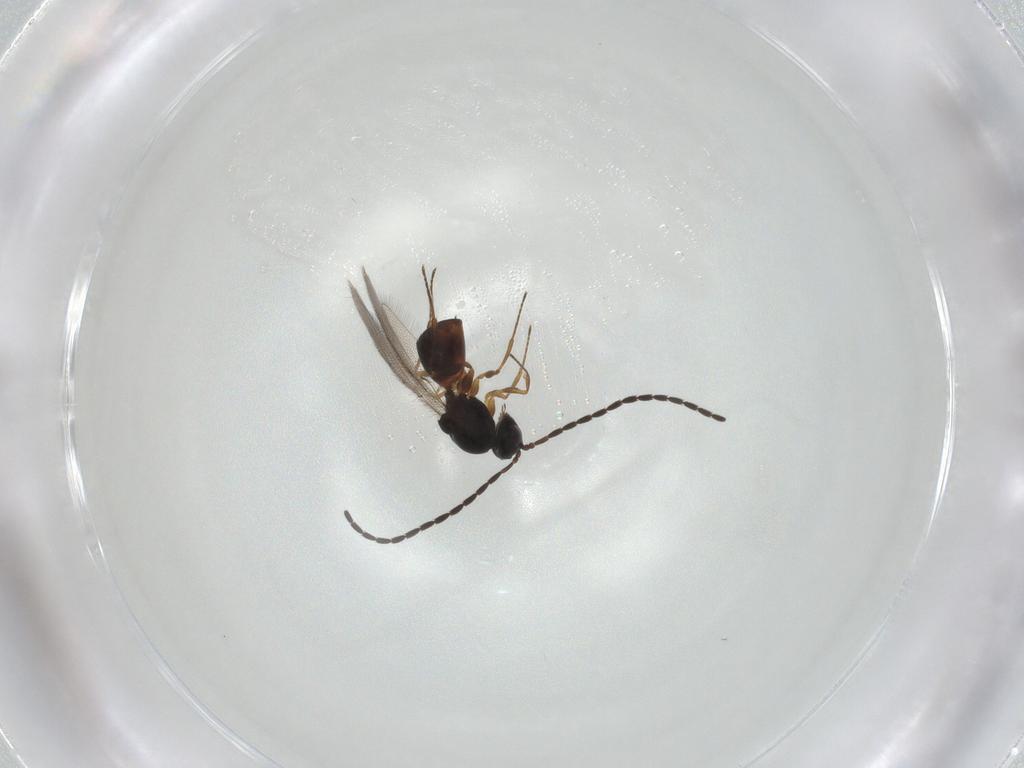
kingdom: Animalia
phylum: Arthropoda
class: Insecta
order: Hymenoptera
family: Figitidae
